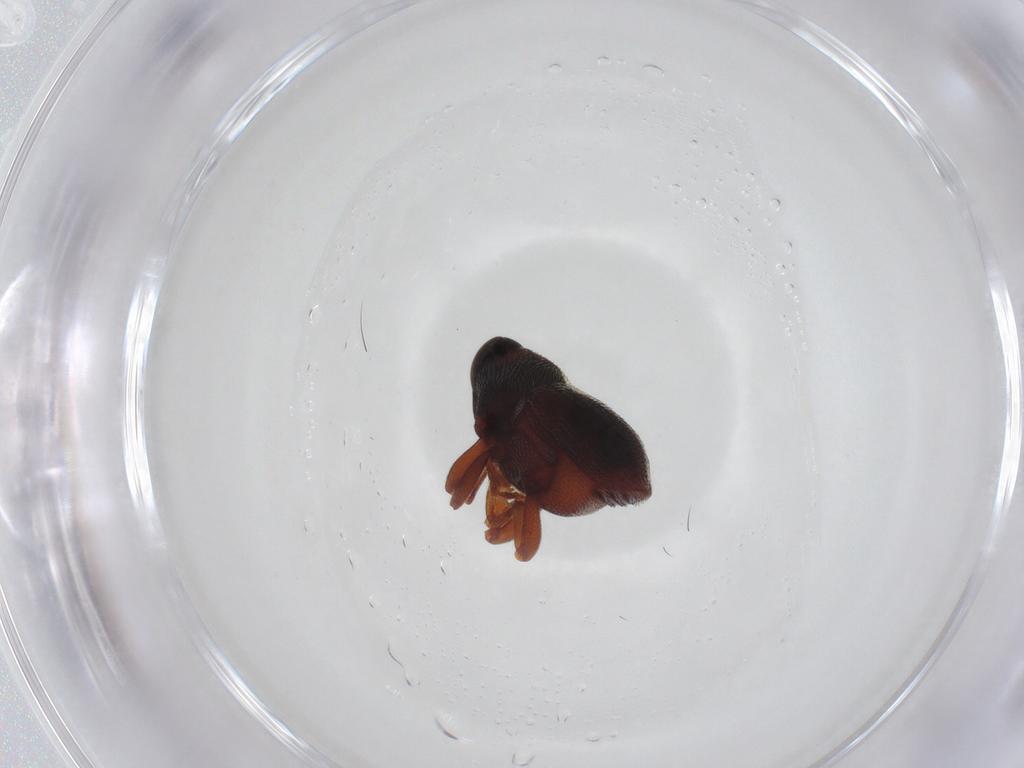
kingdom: Animalia
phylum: Arthropoda
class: Insecta
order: Coleoptera
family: Curculionidae
